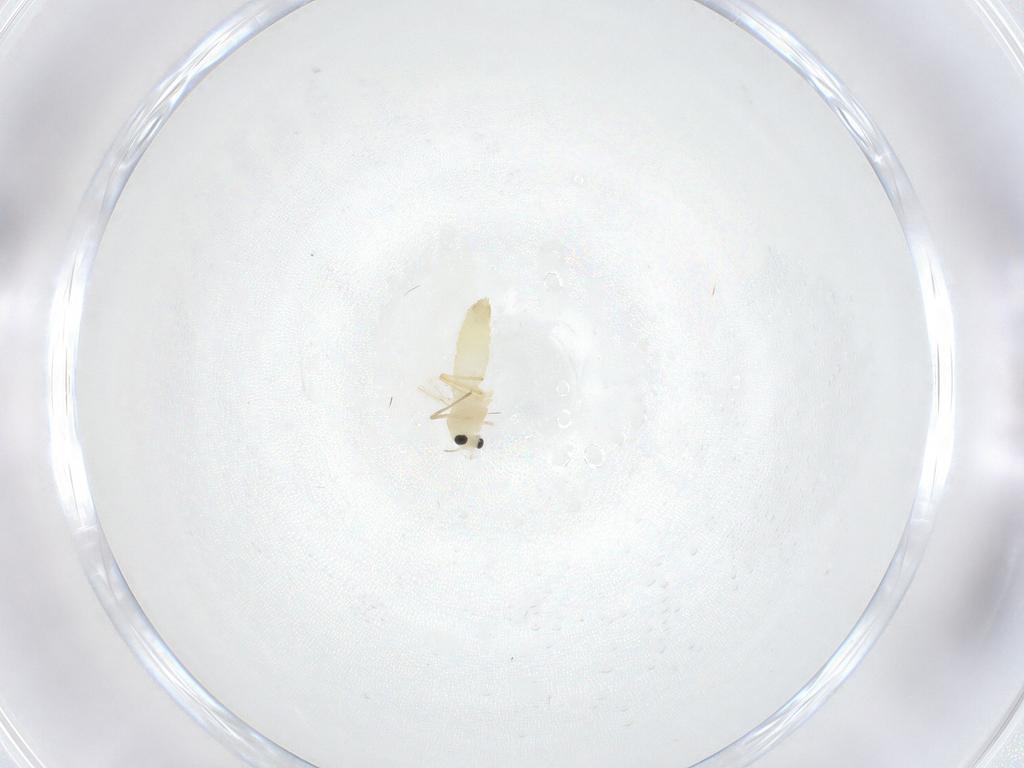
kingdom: Animalia
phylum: Arthropoda
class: Insecta
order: Diptera
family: Chironomidae
